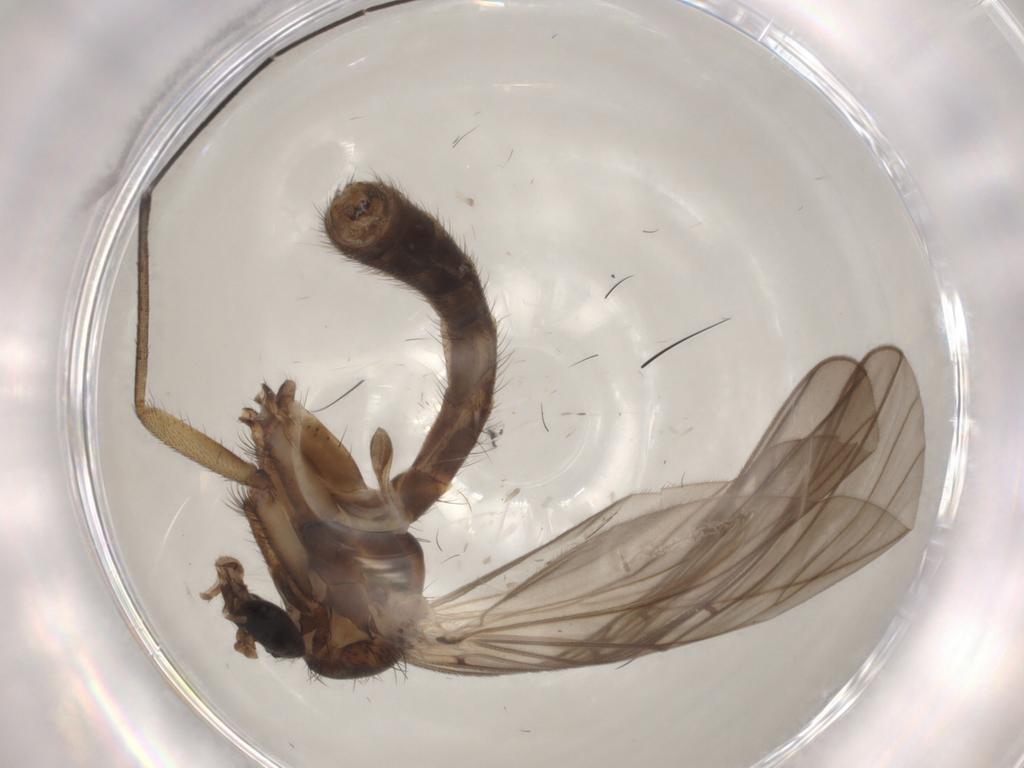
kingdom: Animalia
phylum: Arthropoda
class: Insecta
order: Diptera
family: Mycetophilidae
